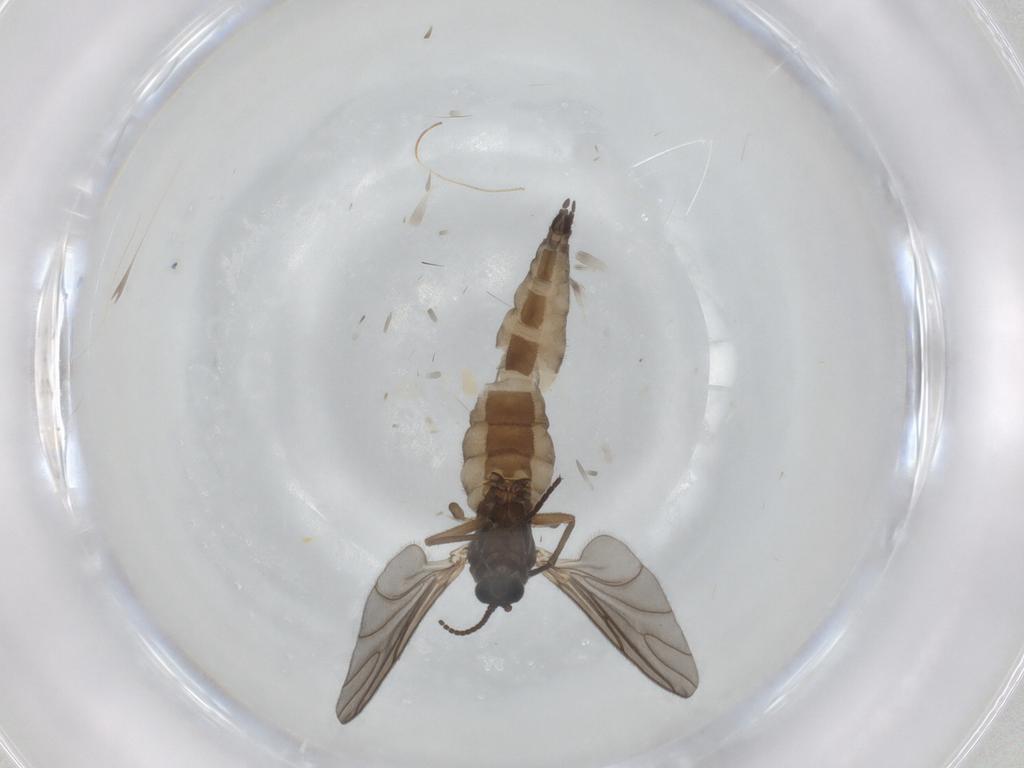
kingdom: Animalia
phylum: Arthropoda
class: Insecta
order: Diptera
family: Sciaridae
